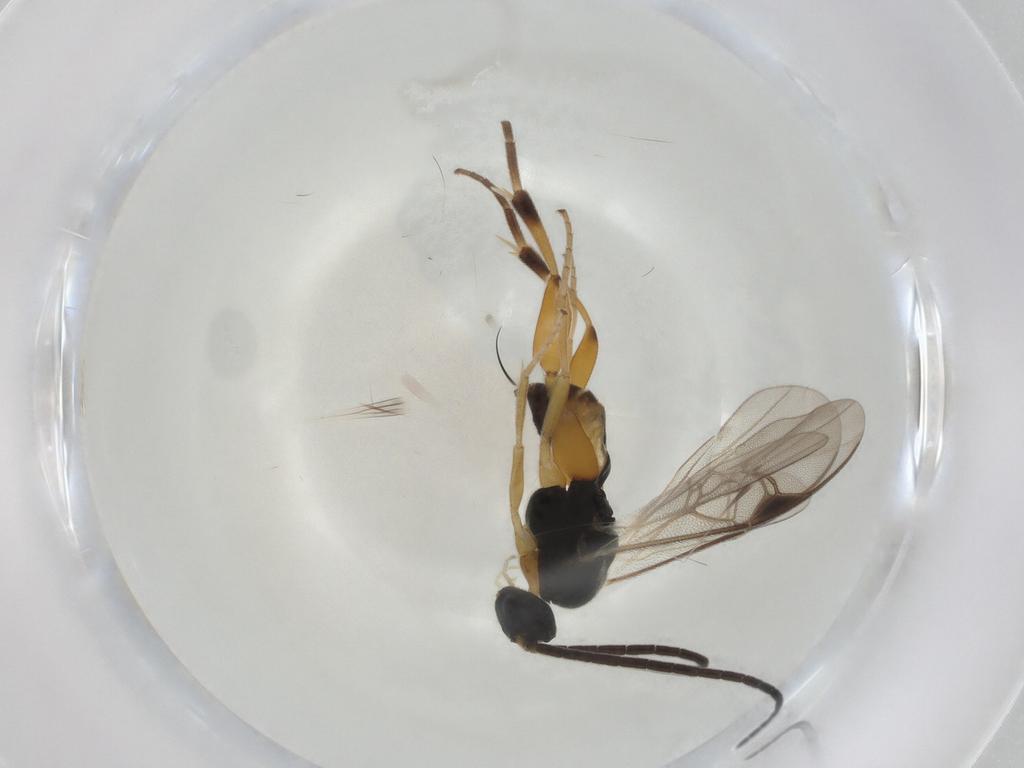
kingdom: Animalia
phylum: Arthropoda
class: Insecta
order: Hymenoptera
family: Braconidae
